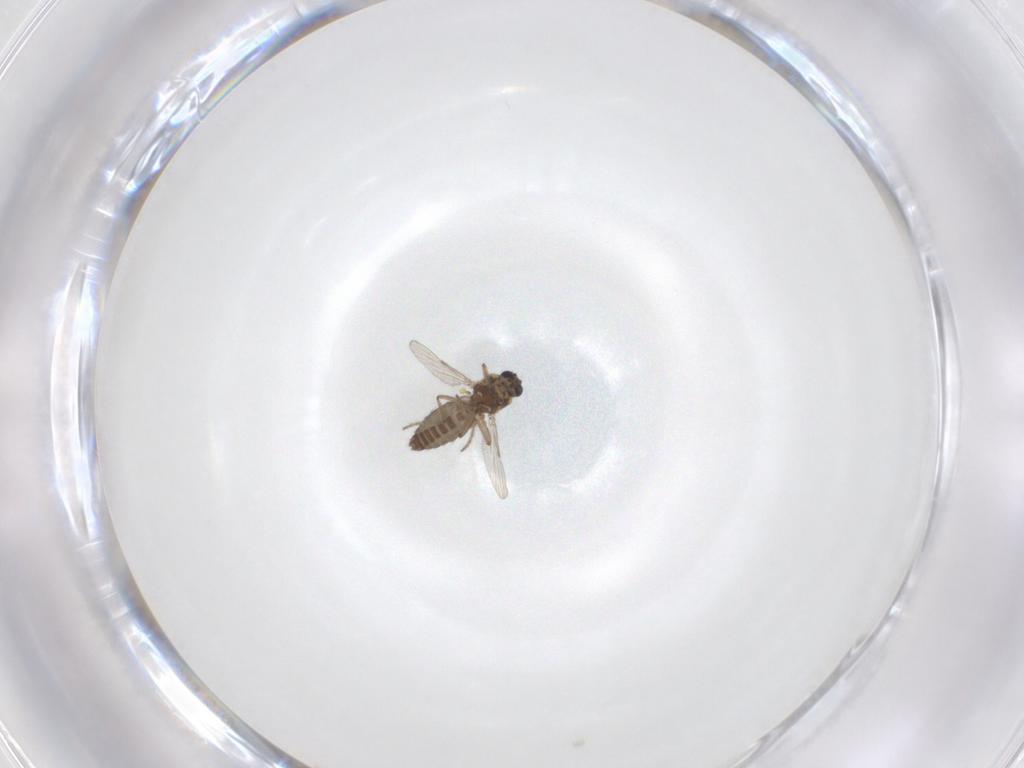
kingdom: Animalia
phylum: Arthropoda
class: Insecta
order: Diptera
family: Ceratopogonidae
